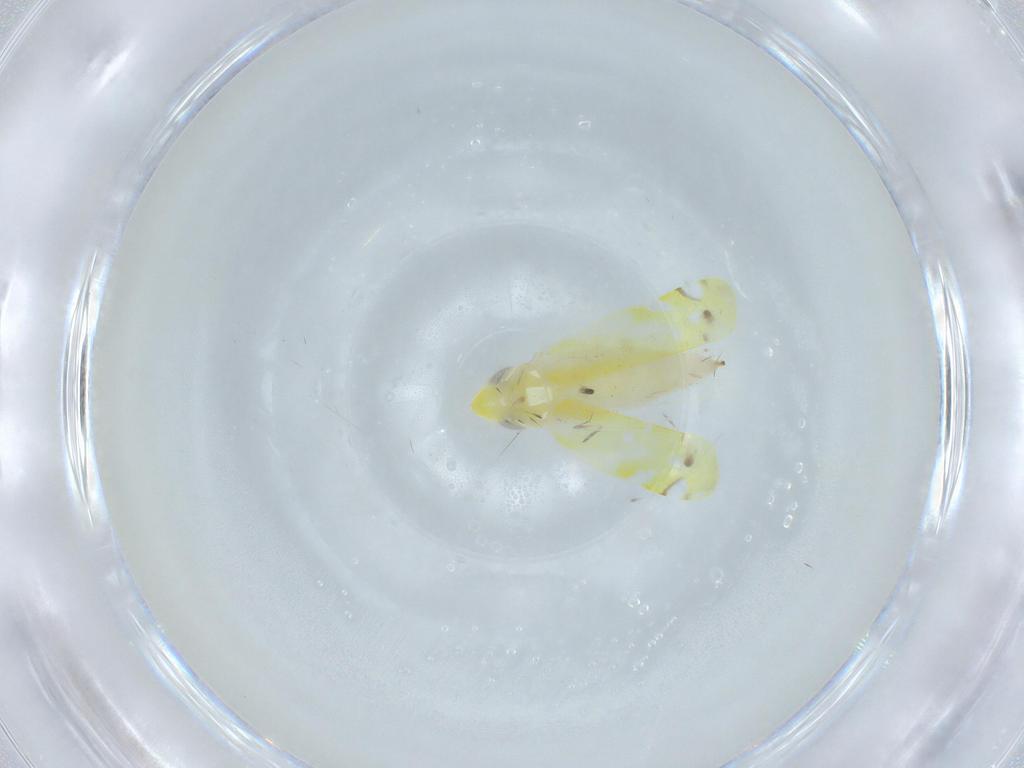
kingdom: Animalia
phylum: Arthropoda
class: Insecta
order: Hemiptera
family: Cicadellidae
